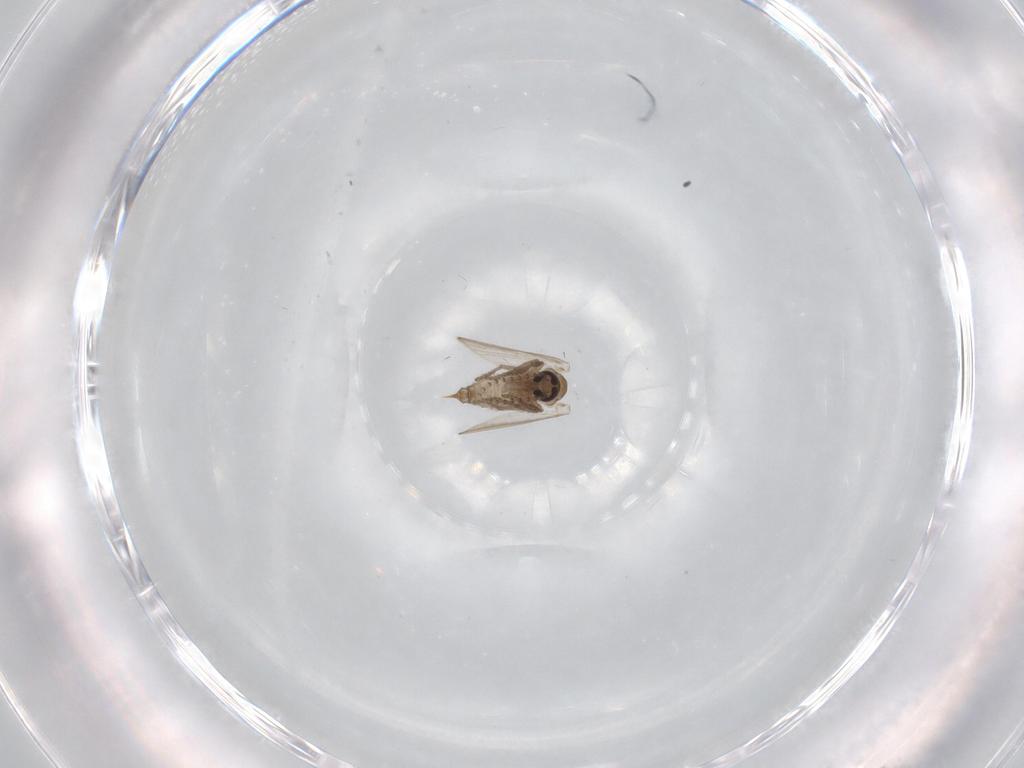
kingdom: Animalia
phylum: Arthropoda
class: Insecta
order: Diptera
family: Psychodidae
